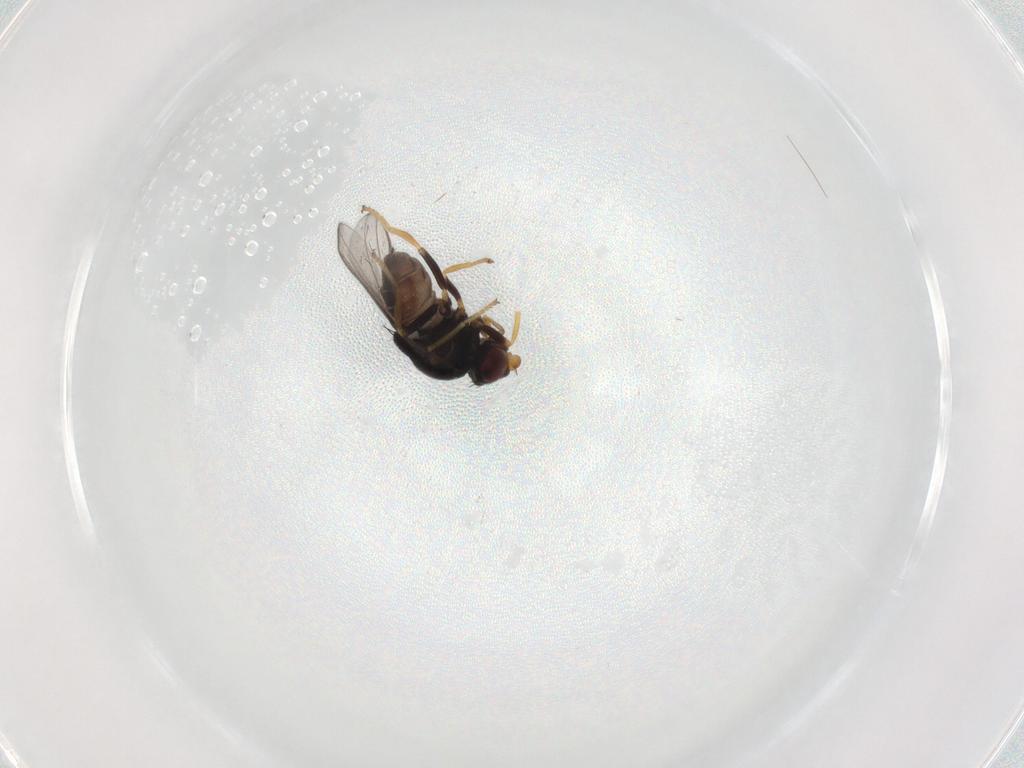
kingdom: Animalia
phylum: Arthropoda
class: Insecta
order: Diptera
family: Chloropidae
